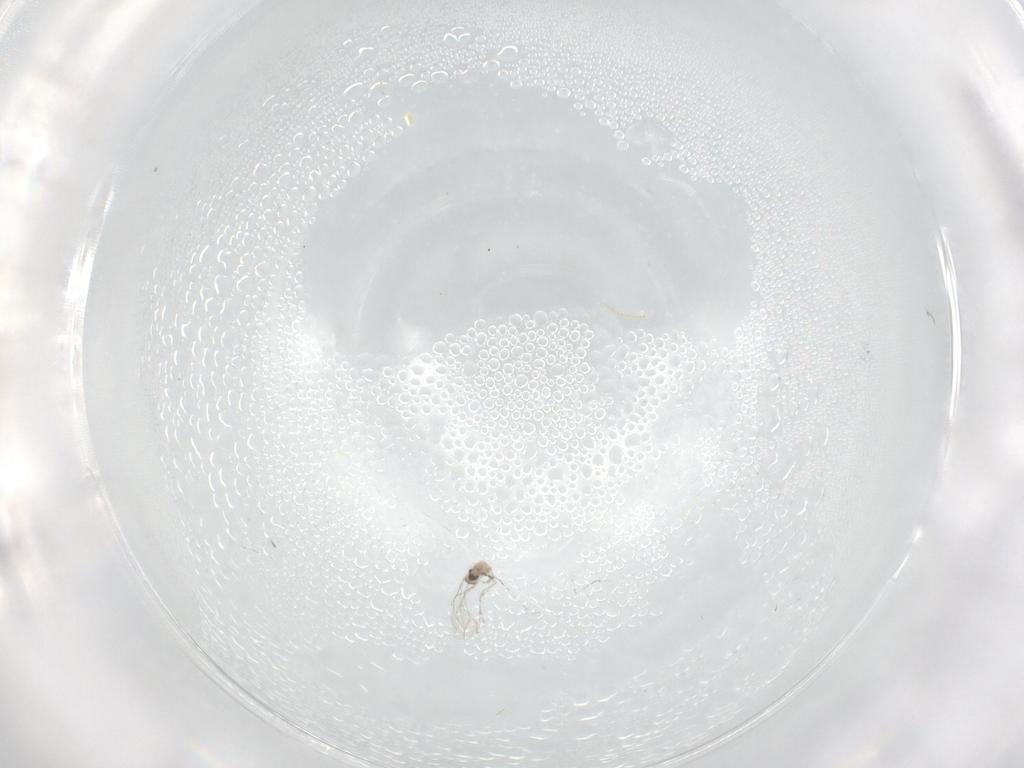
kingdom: Animalia
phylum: Arthropoda
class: Insecta
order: Diptera
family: Cecidomyiidae
